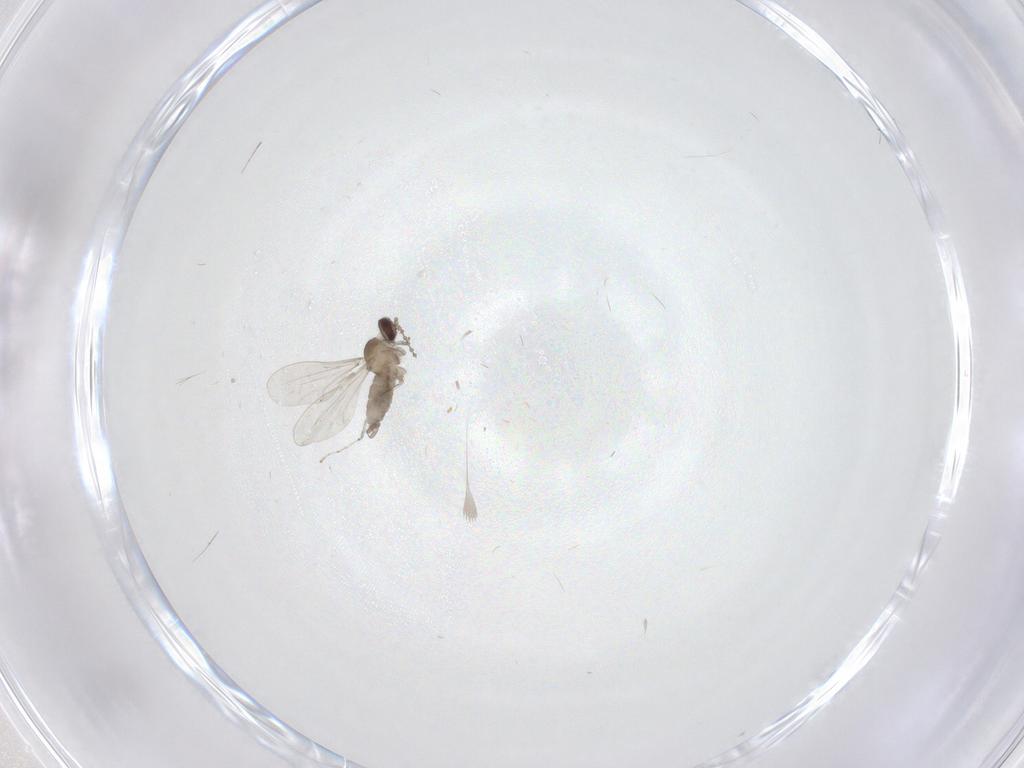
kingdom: Animalia
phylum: Arthropoda
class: Insecta
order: Diptera
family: Cecidomyiidae
